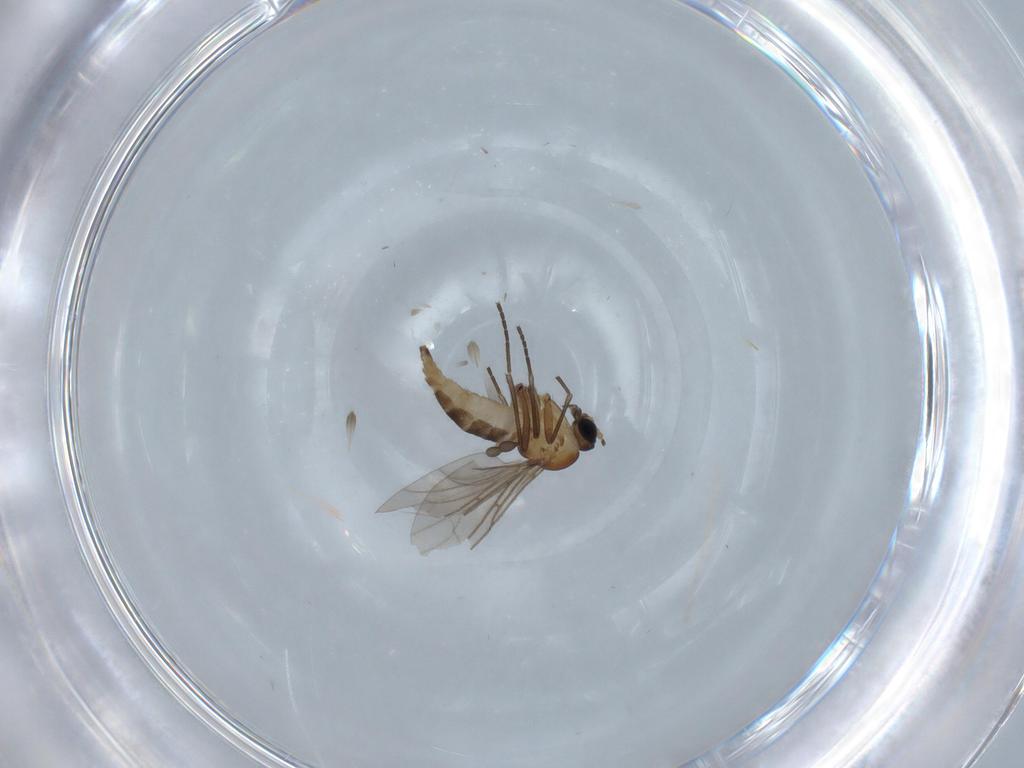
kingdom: Animalia
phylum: Arthropoda
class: Insecta
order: Diptera
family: Sciaridae
